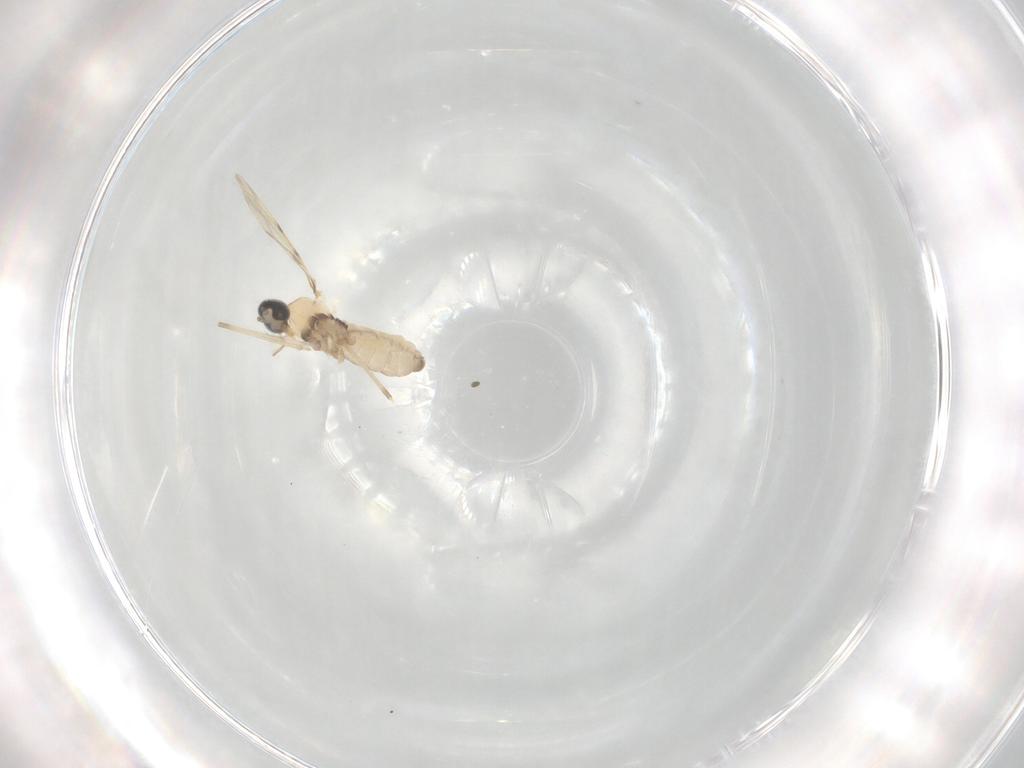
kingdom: Animalia
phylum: Arthropoda
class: Insecta
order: Diptera
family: Cecidomyiidae
